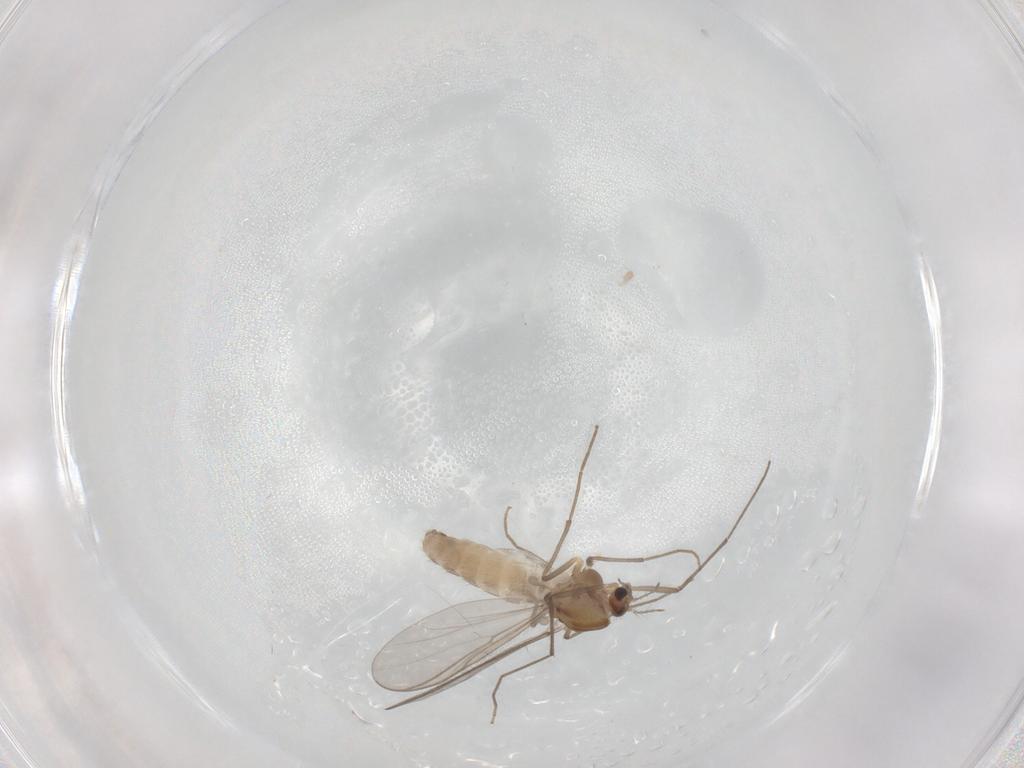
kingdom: Animalia
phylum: Arthropoda
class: Insecta
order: Diptera
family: Chironomidae
